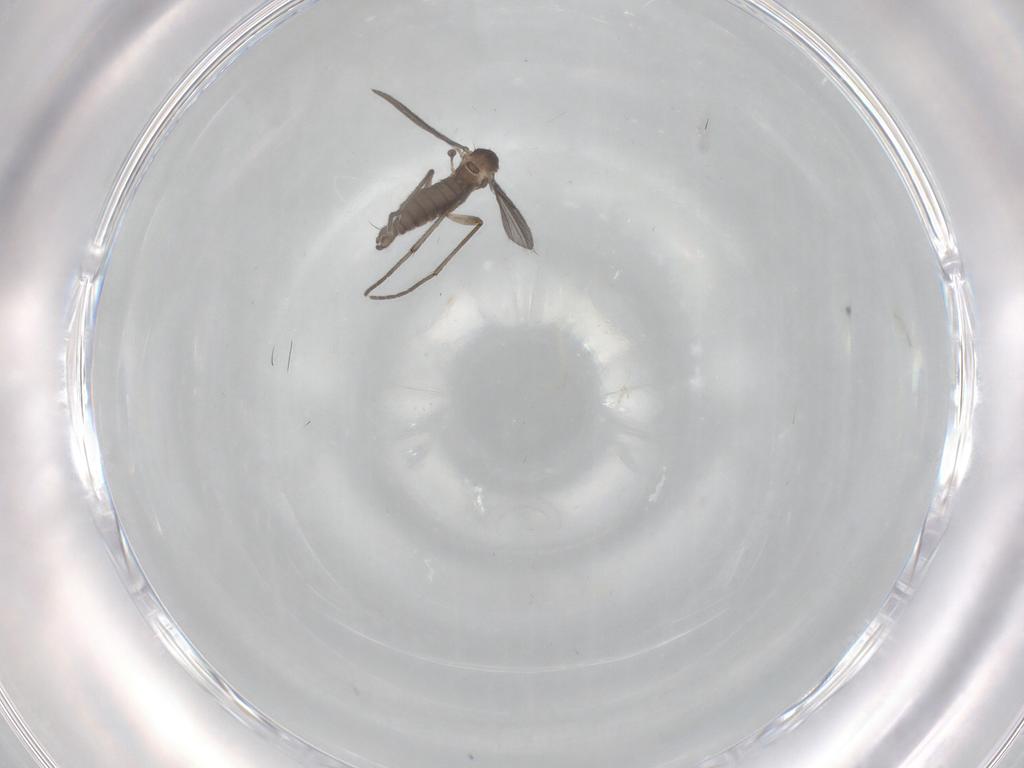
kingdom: Animalia
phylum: Arthropoda
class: Insecta
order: Diptera
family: Sciaridae
